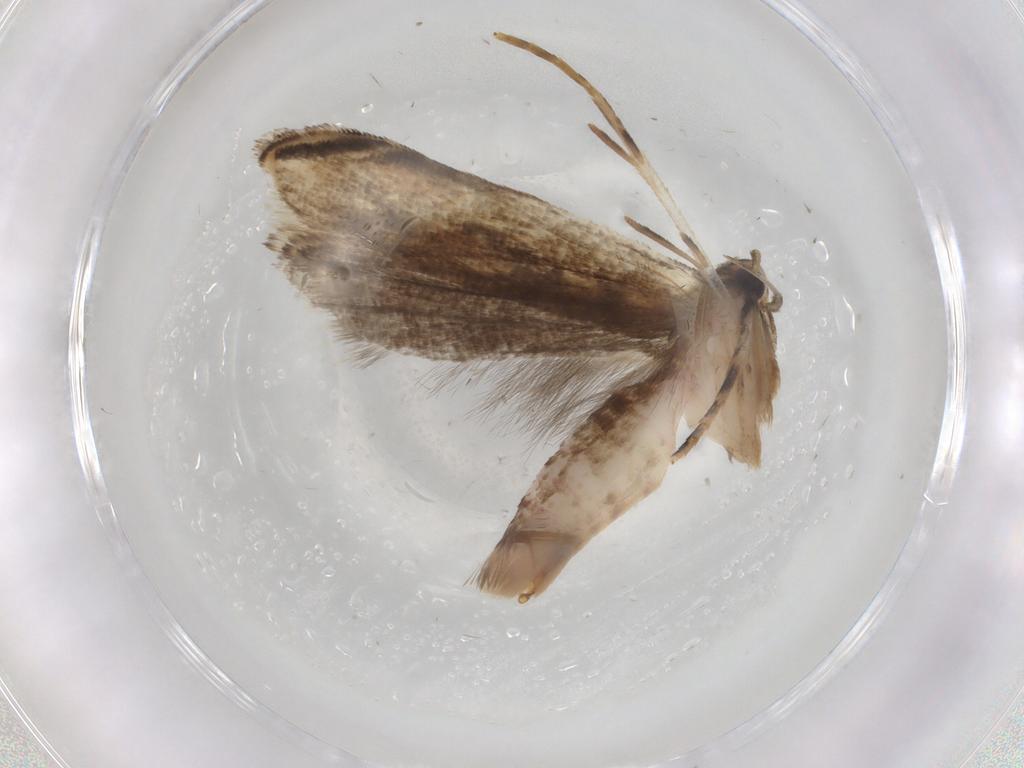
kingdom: Animalia
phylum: Arthropoda
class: Insecta
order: Lepidoptera
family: Gelechiidae
